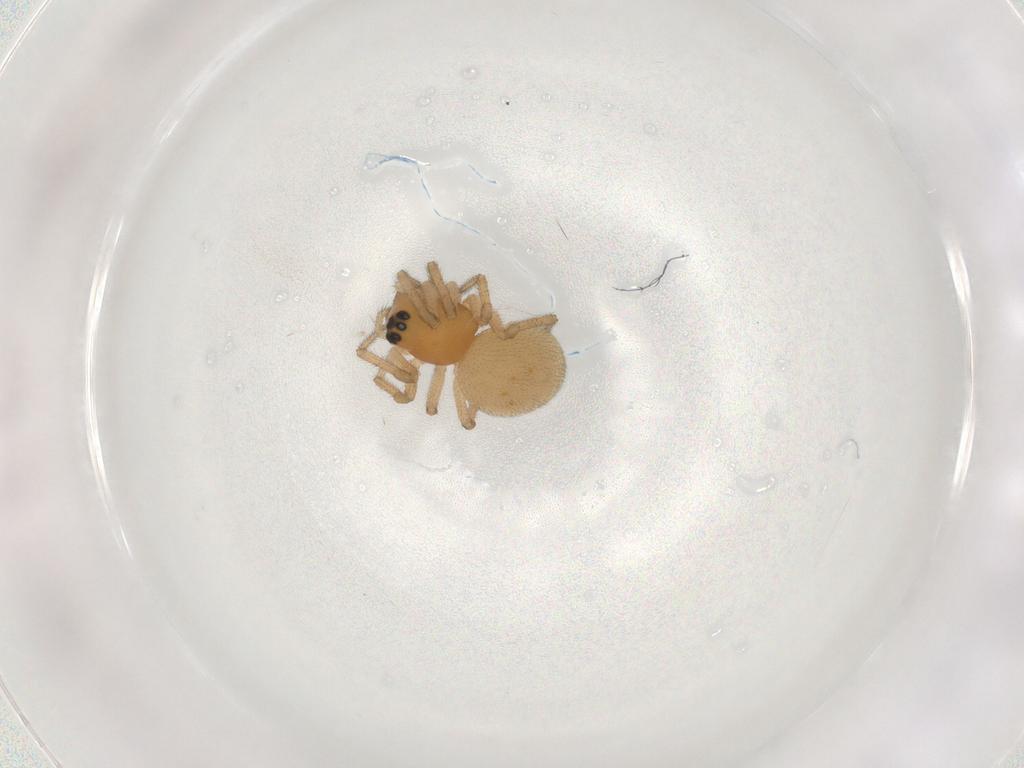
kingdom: Animalia
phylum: Arthropoda
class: Arachnida
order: Araneae
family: Linyphiidae
